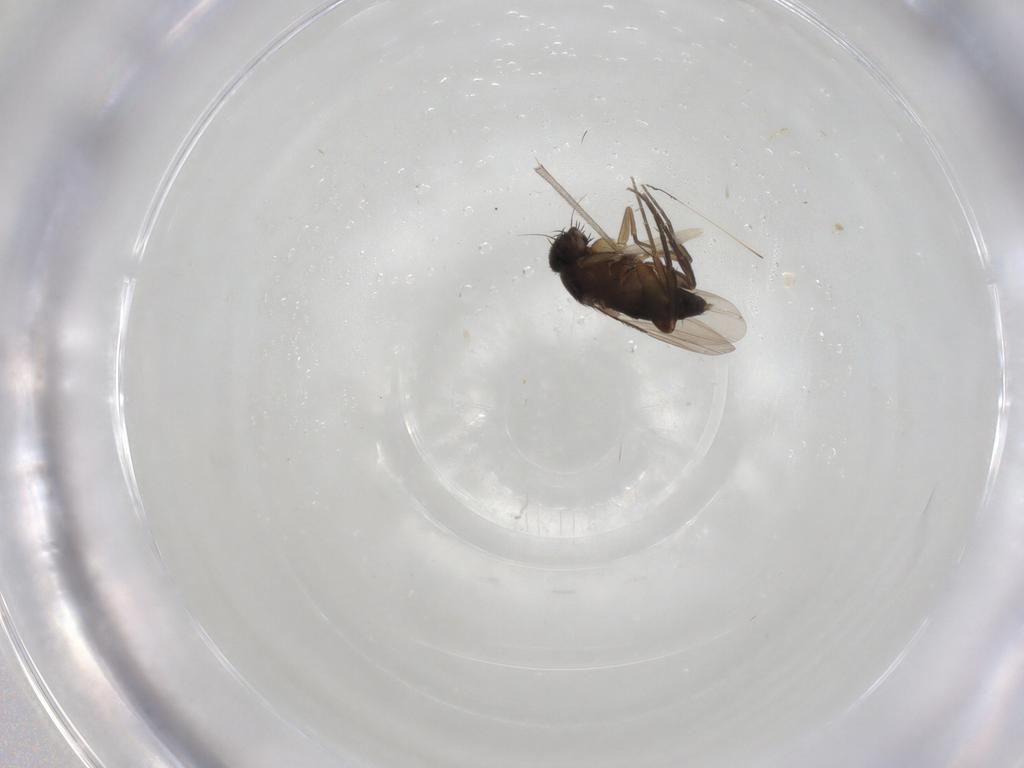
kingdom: Animalia
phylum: Arthropoda
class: Insecta
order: Diptera
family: Phoridae
